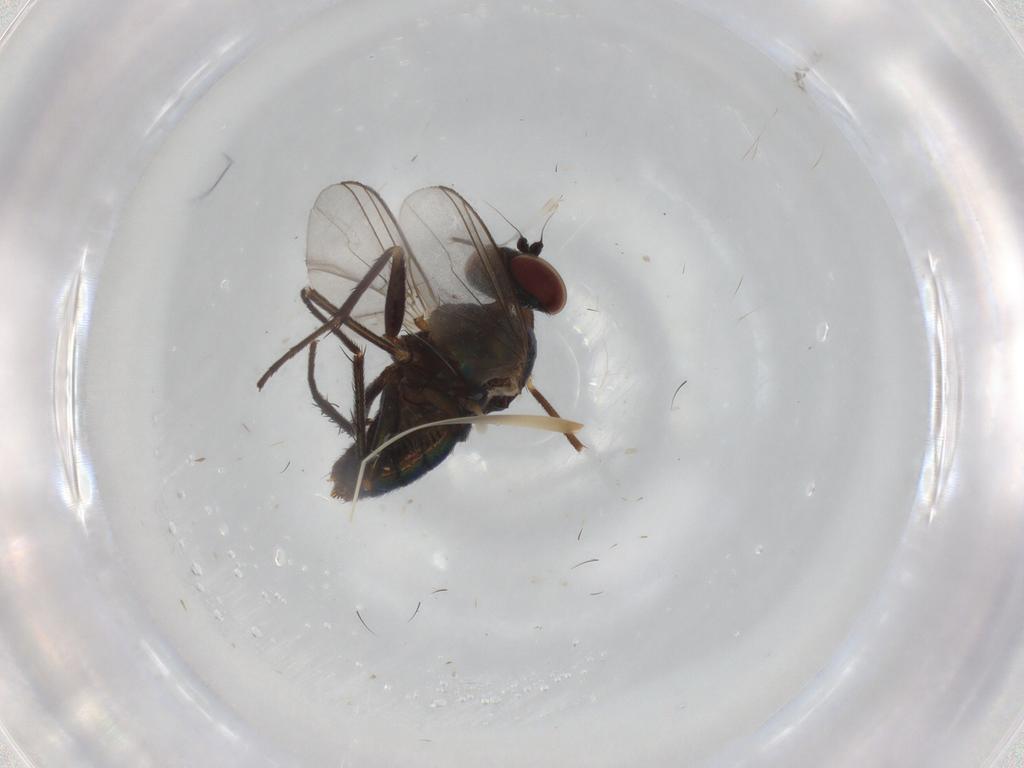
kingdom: Animalia
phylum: Arthropoda
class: Insecta
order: Diptera
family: Dolichopodidae
